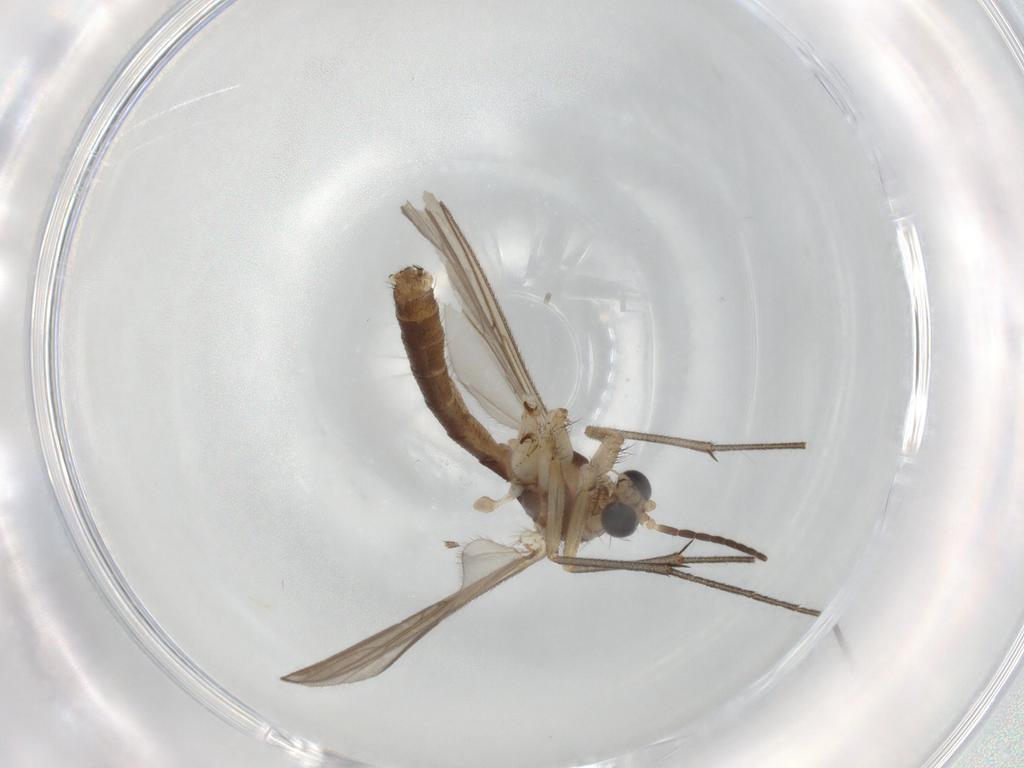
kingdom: Animalia
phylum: Arthropoda
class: Insecta
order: Diptera
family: Mycetophilidae
